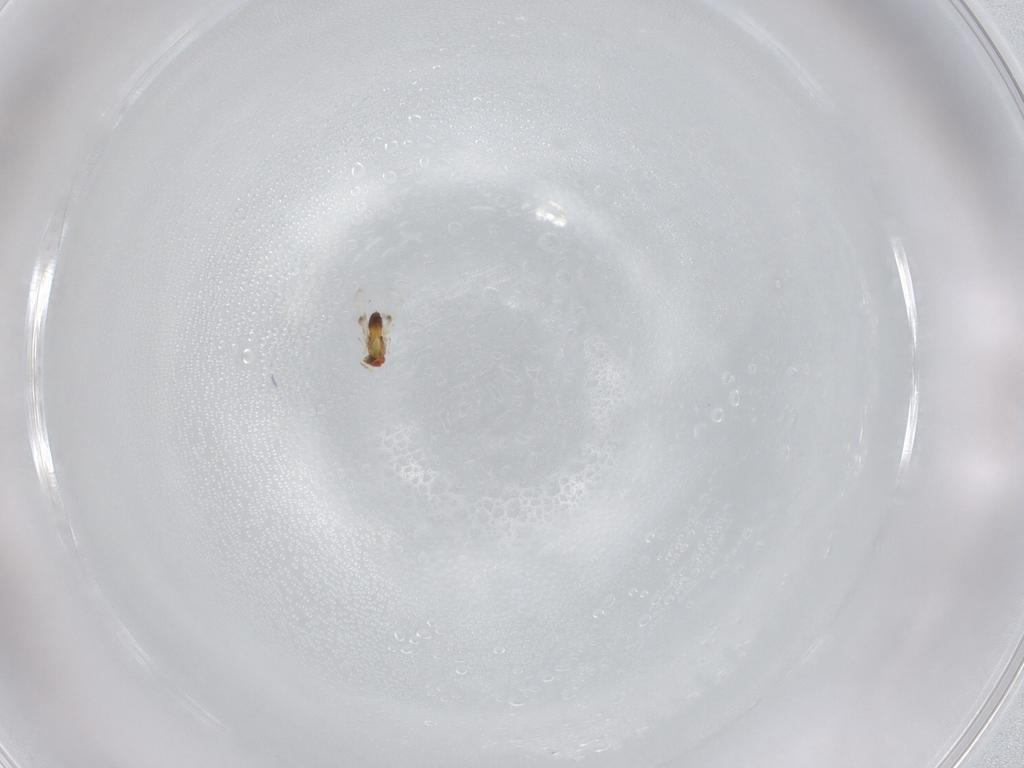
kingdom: Animalia
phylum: Arthropoda
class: Insecta
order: Hymenoptera
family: Trichogrammatidae
